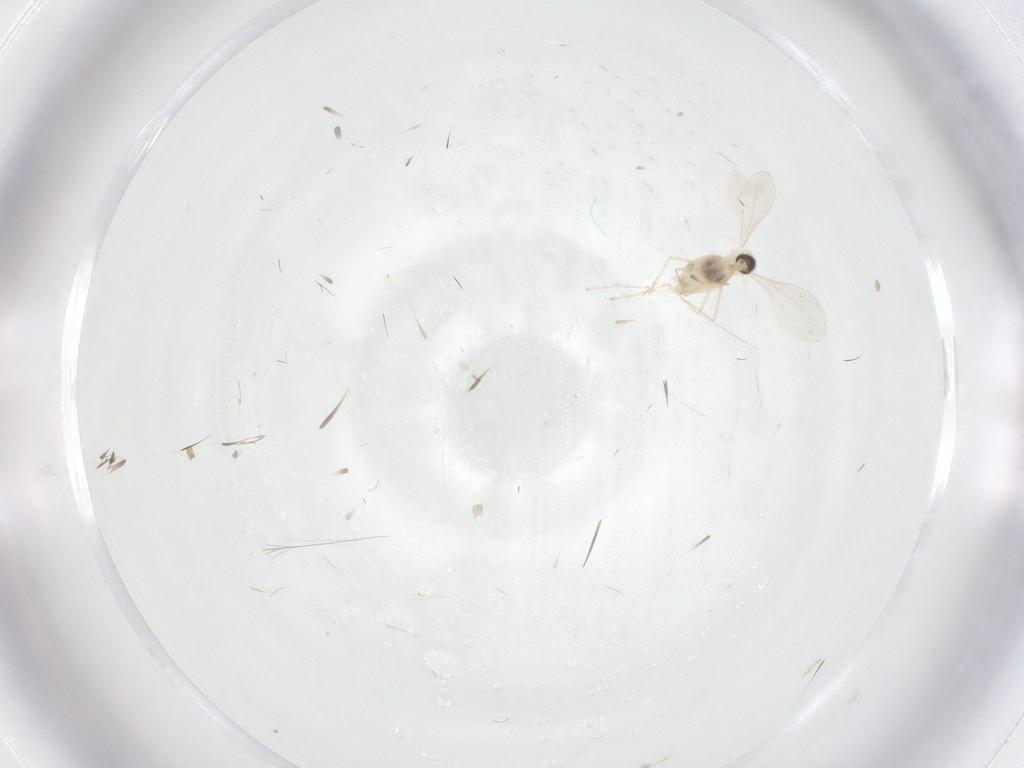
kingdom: Animalia
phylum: Arthropoda
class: Insecta
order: Diptera
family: Cecidomyiidae
